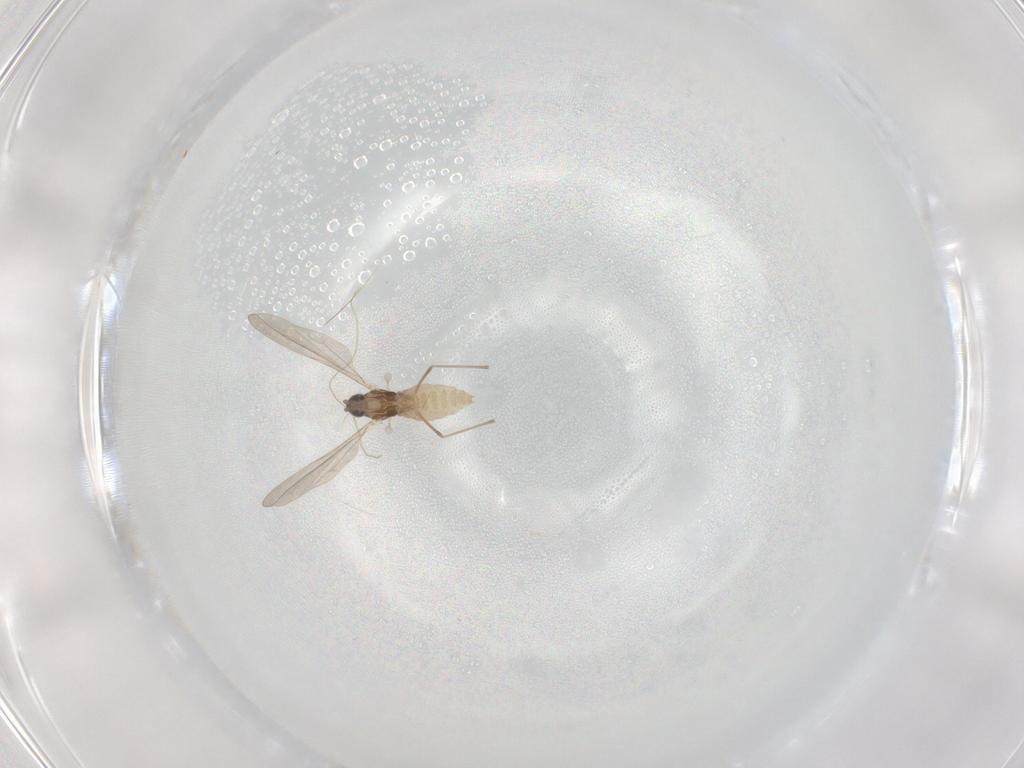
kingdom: Animalia
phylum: Arthropoda
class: Insecta
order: Diptera
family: Cecidomyiidae
